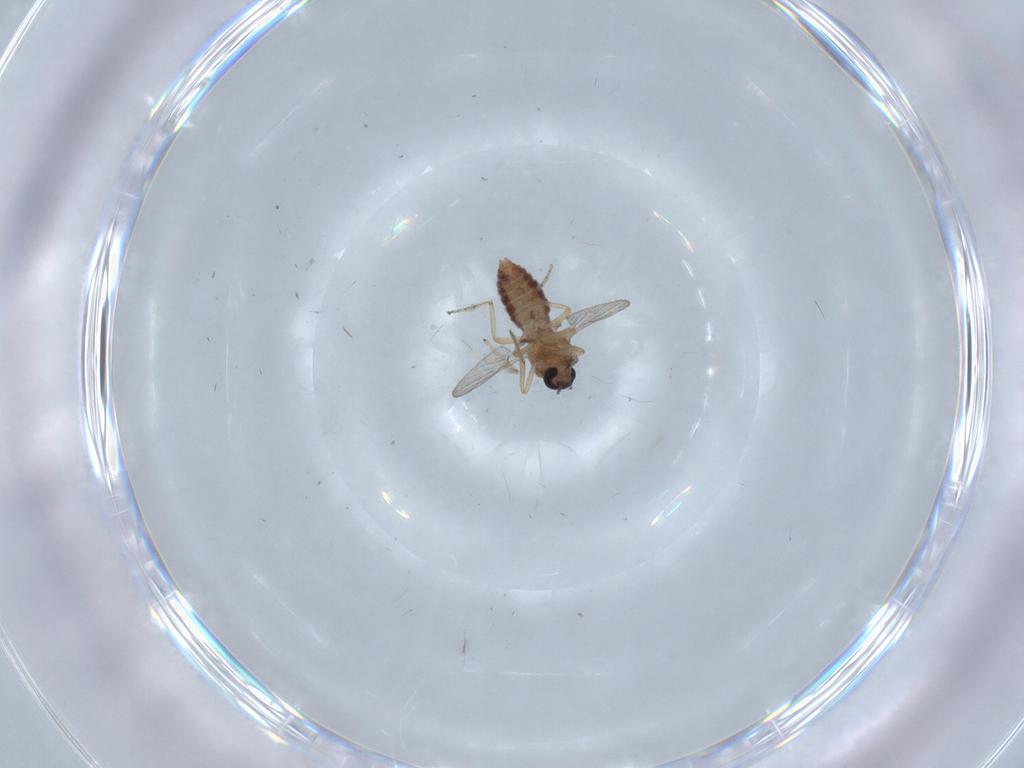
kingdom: Animalia
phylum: Arthropoda
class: Insecta
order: Diptera
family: Chironomidae
